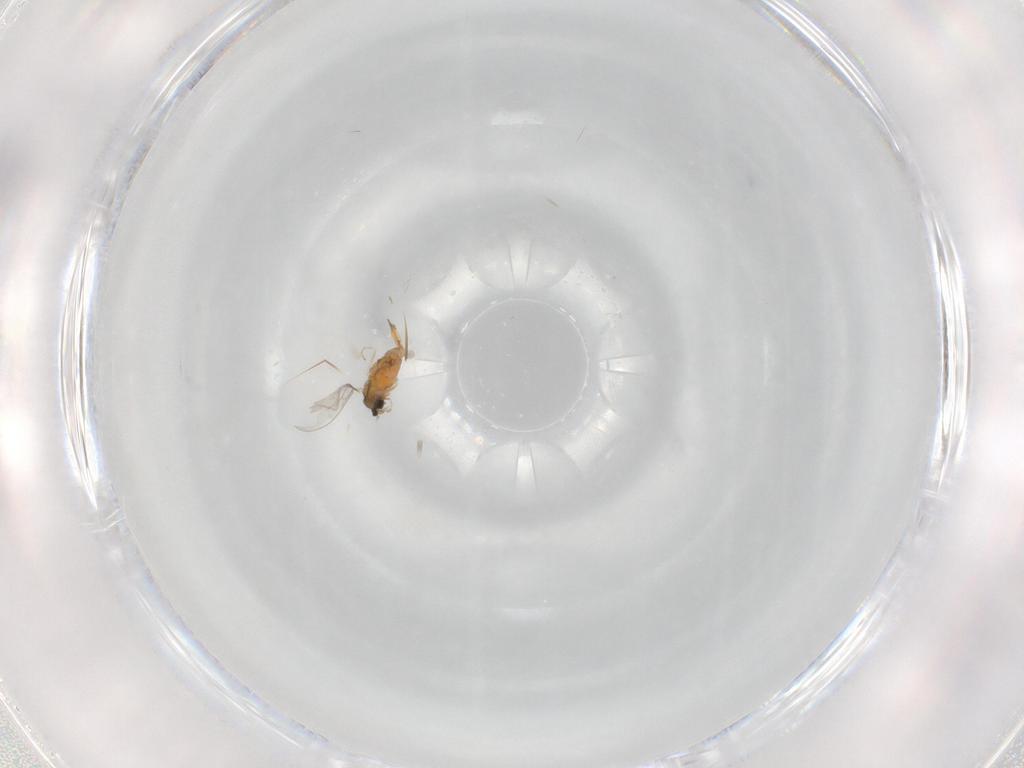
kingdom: Animalia
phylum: Arthropoda
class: Insecta
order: Diptera
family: Cecidomyiidae
